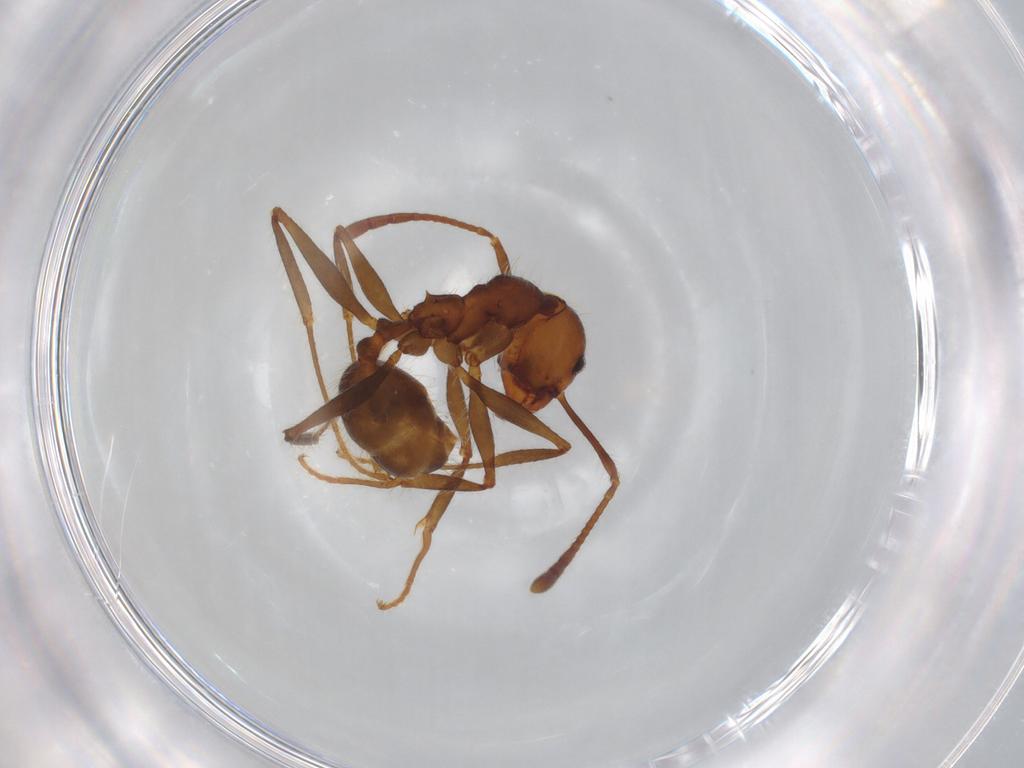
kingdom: Animalia
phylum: Arthropoda
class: Insecta
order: Hymenoptera
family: Formicidae
